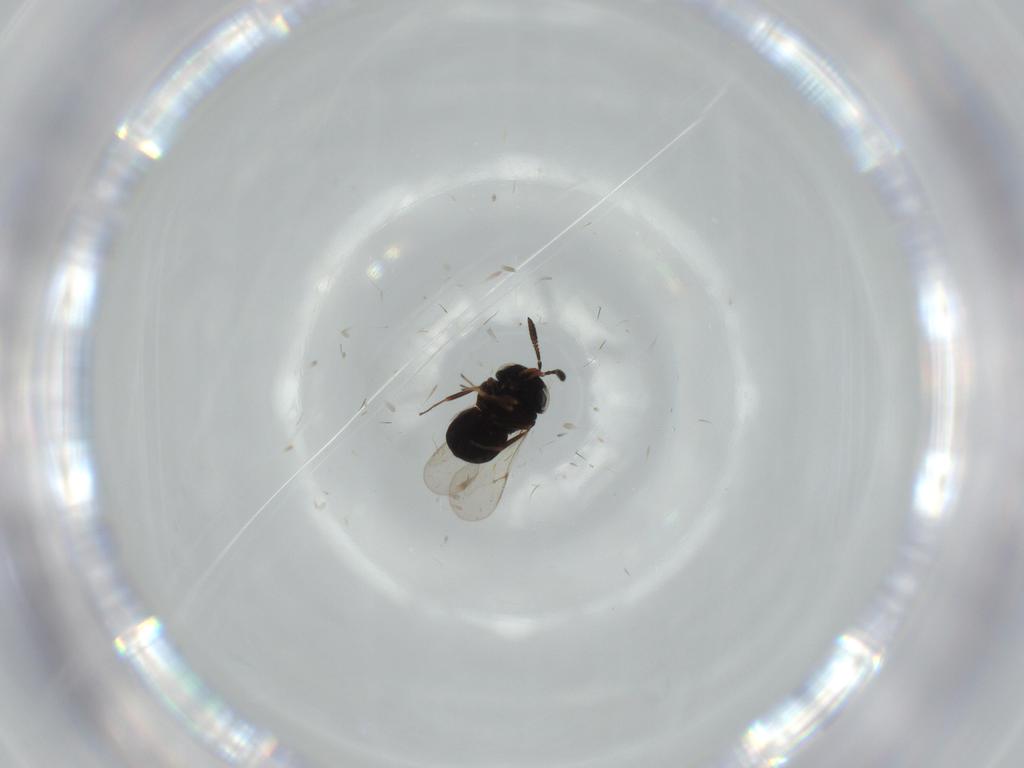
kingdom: Animalia
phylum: Arthropoda
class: Insecta
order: Hymenoptera
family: Scelionidae
